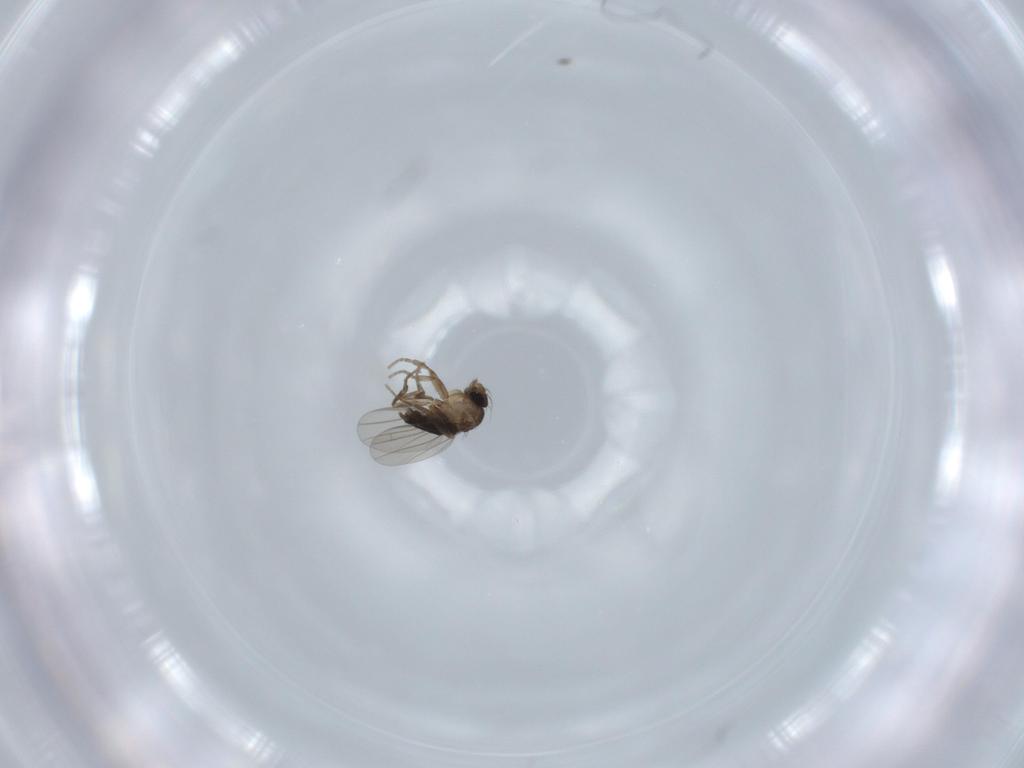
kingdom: Animalia
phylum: Arthropoda
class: Insecta
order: Diptera
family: Phoridae
